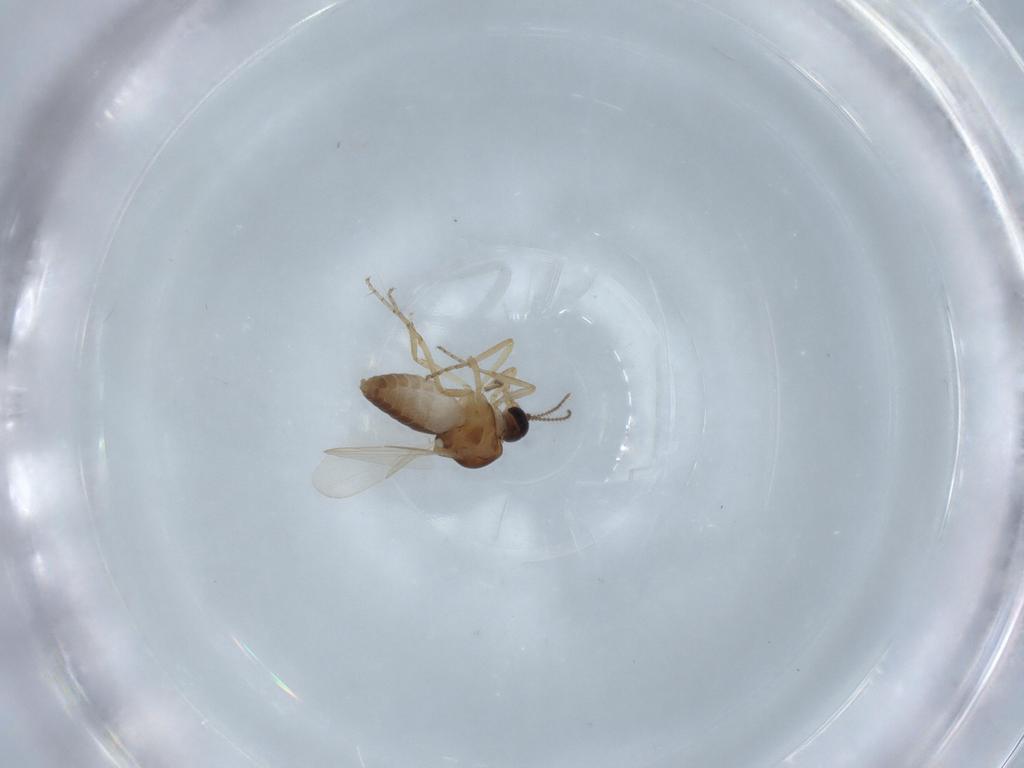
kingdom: Animalia
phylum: Arthropoda
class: Insecta
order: Diptera
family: Ceratopogonidae
